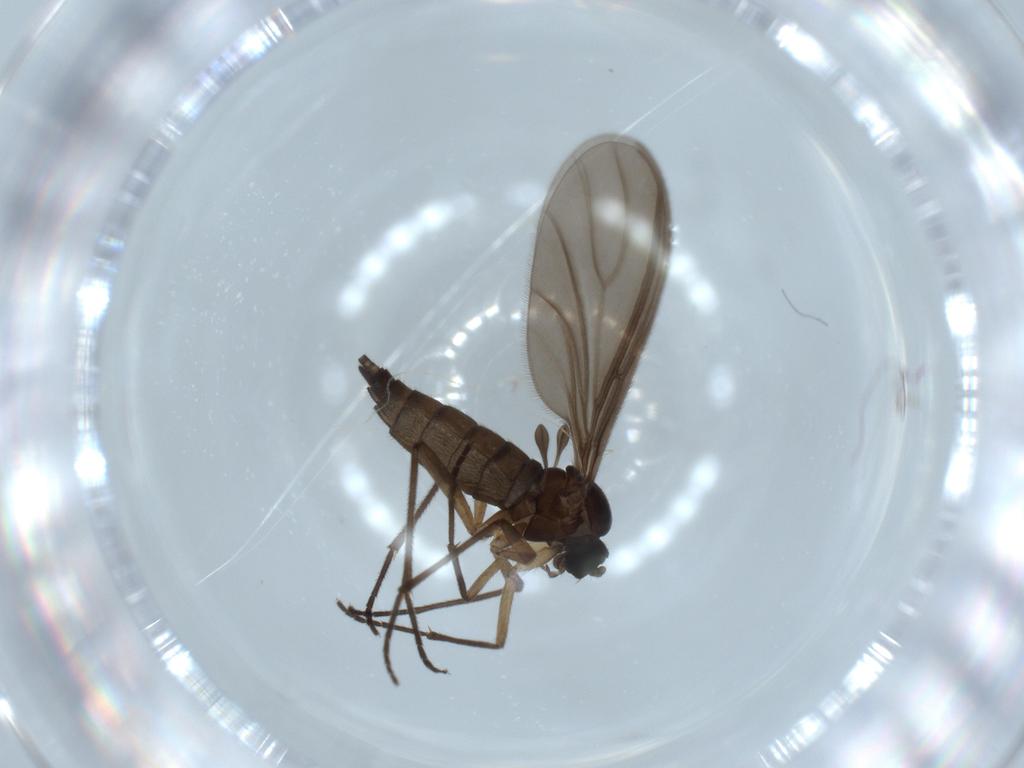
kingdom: Animalia
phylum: Arthropoda
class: Insecta
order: Diptera
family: Sciaridae
